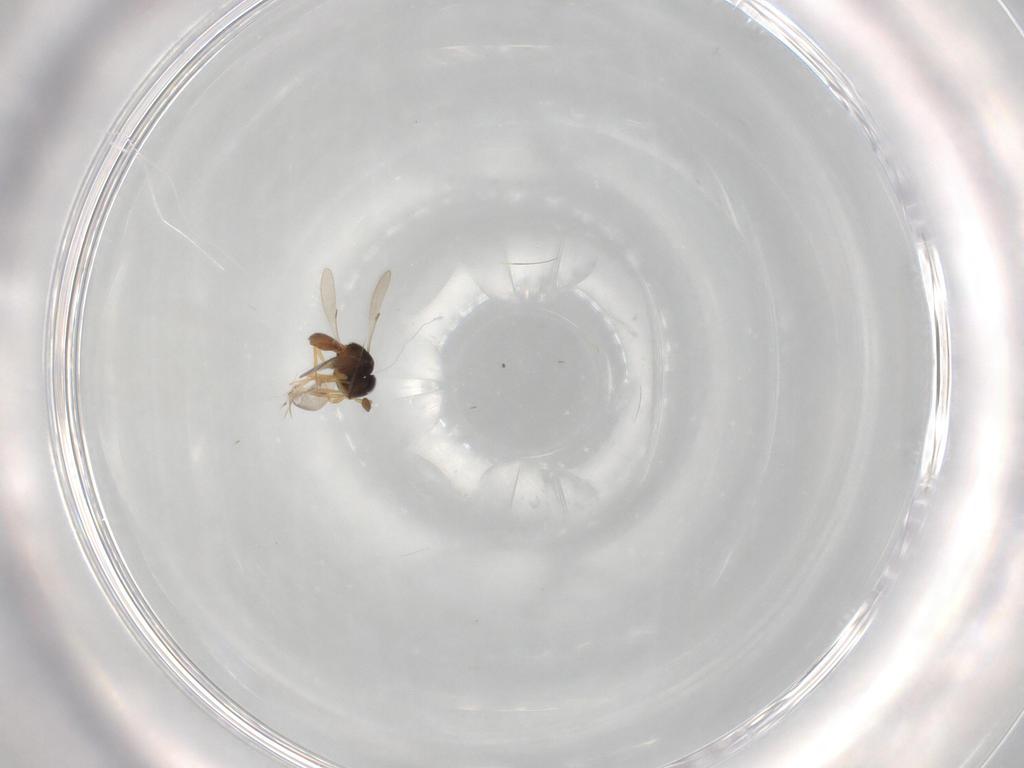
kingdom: Animalia
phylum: Arthropoda
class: Insecta
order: Hymenoptera
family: Scelionidae
